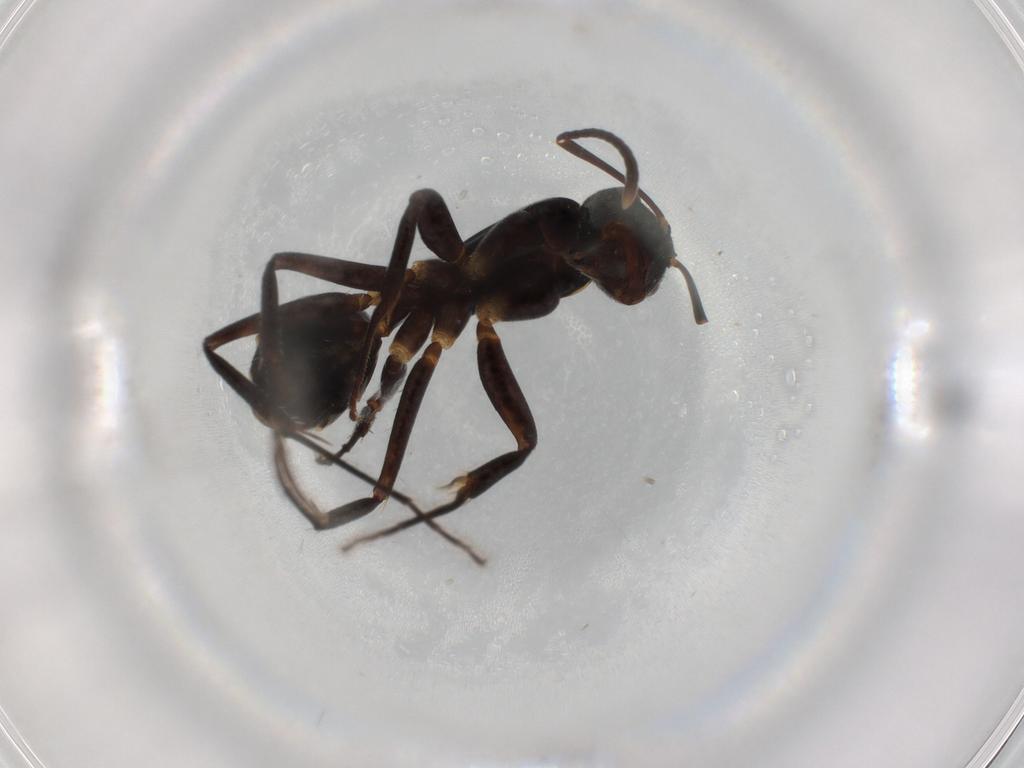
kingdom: Animalia
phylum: Arthropoda
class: Insecta
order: Hymenoptera
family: Formicidae
